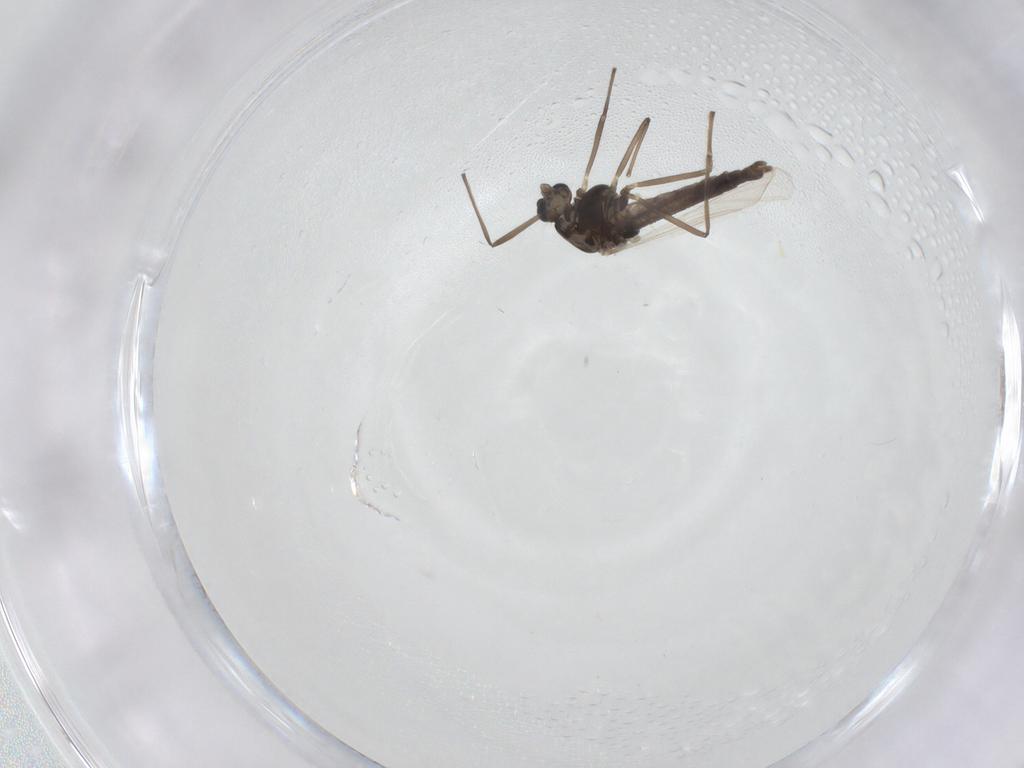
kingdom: Animalia
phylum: Arthropoda
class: Insecta
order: Diptera
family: Chironomidae
